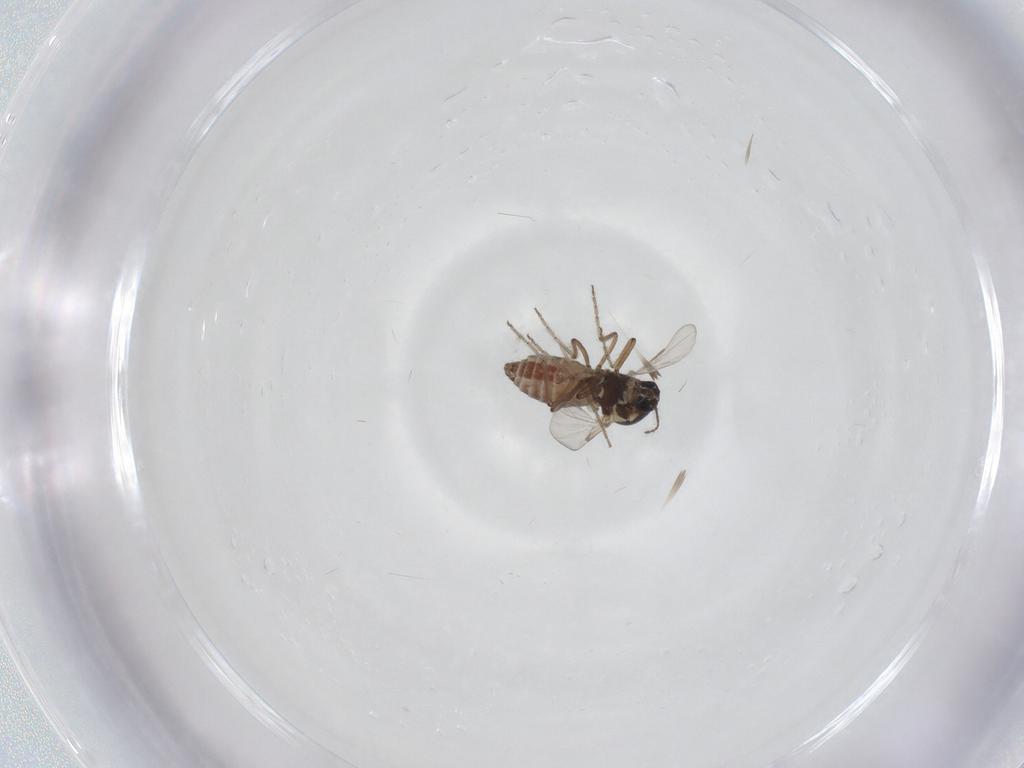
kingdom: Animalia
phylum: Arthropoda
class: Insecta
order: Diptera
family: Ceratopogonidae
